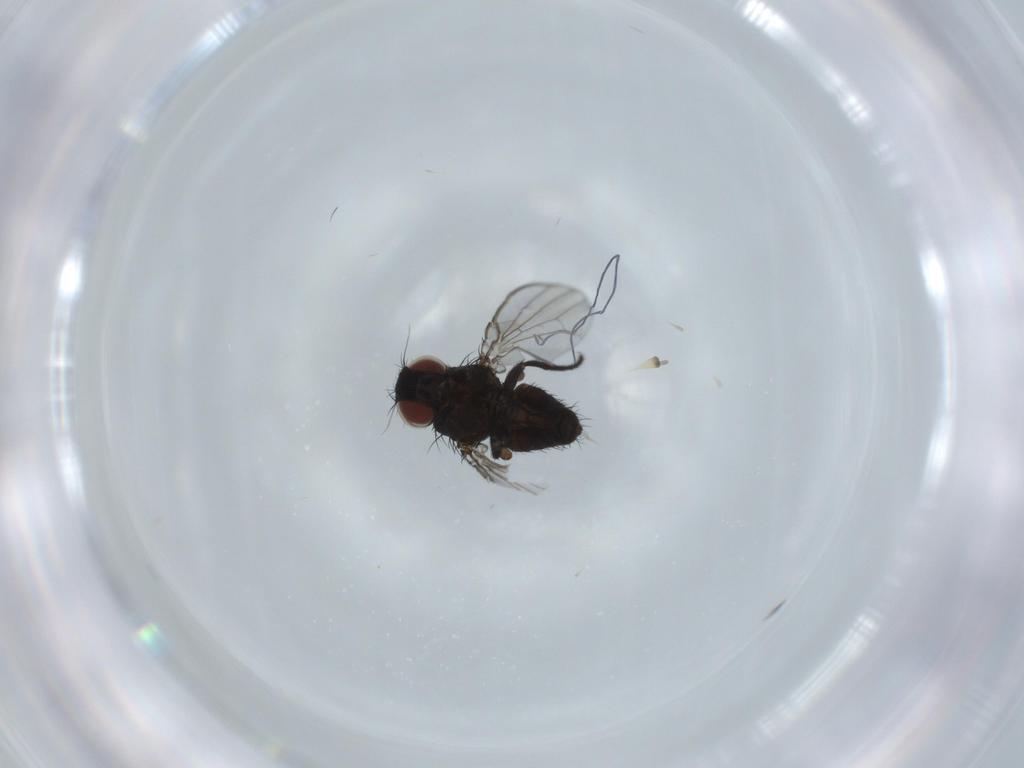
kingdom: Animalia
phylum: Arthropoda
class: Insecta
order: Diptera
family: Milichiidae
